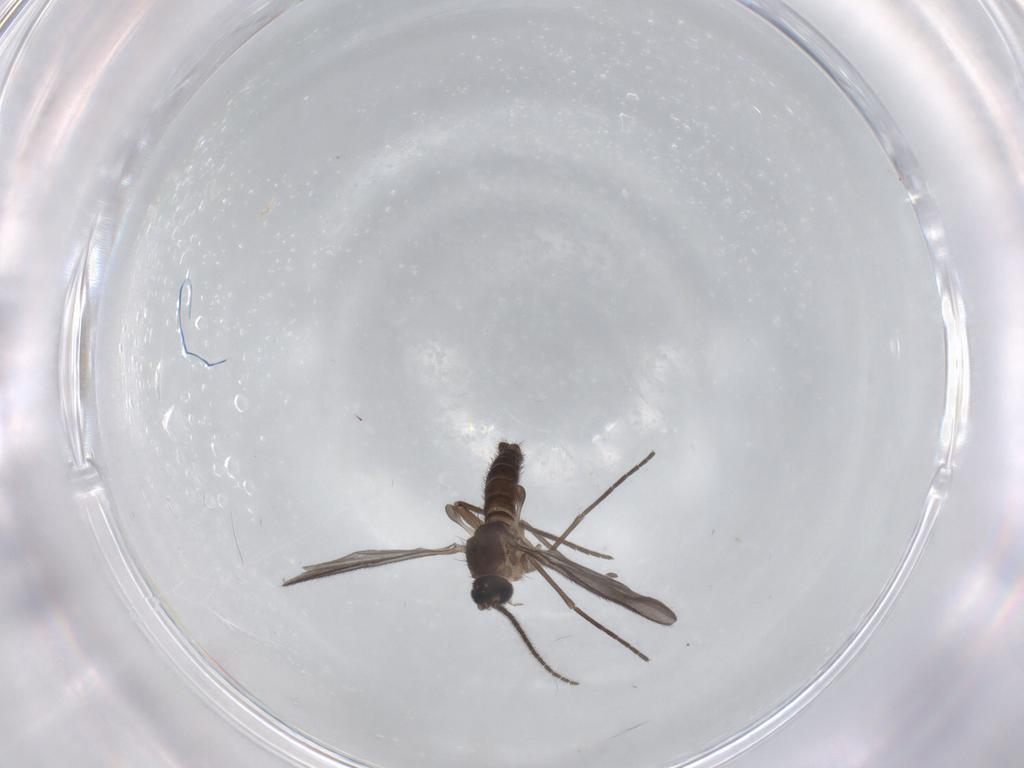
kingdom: Animalia
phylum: Arthropoda
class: Insecta
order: Diptera
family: Sciaridae
